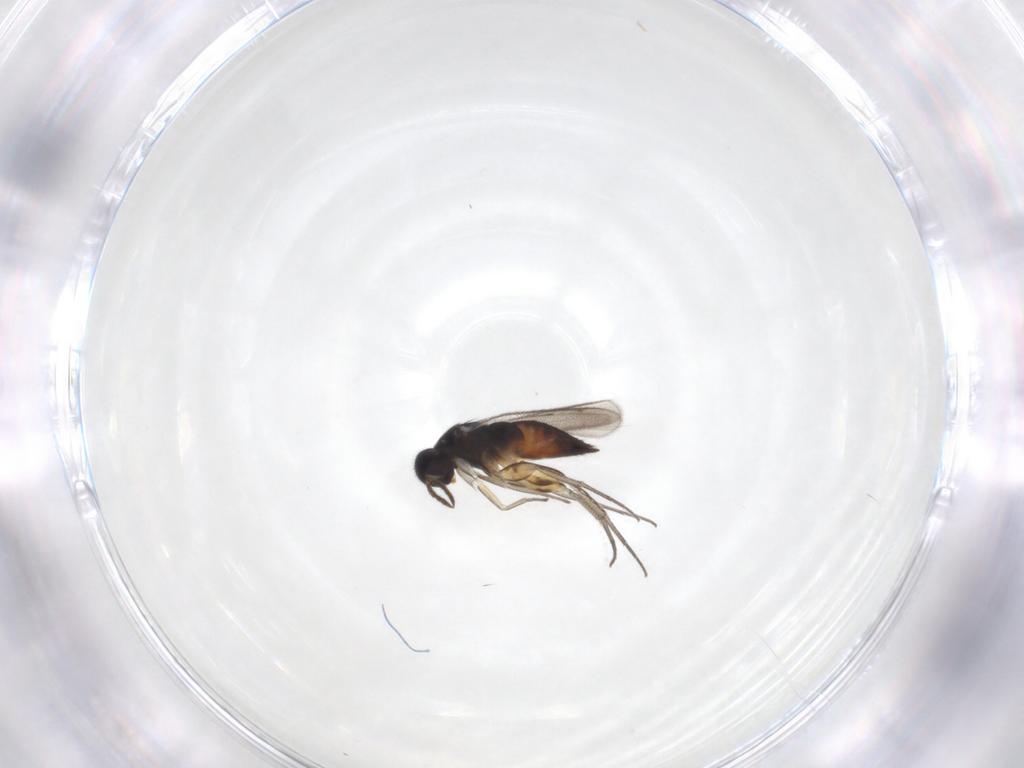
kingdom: Animalia
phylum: Arthropoda
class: Insecta
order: Hymenoptera
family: Eulophidae
